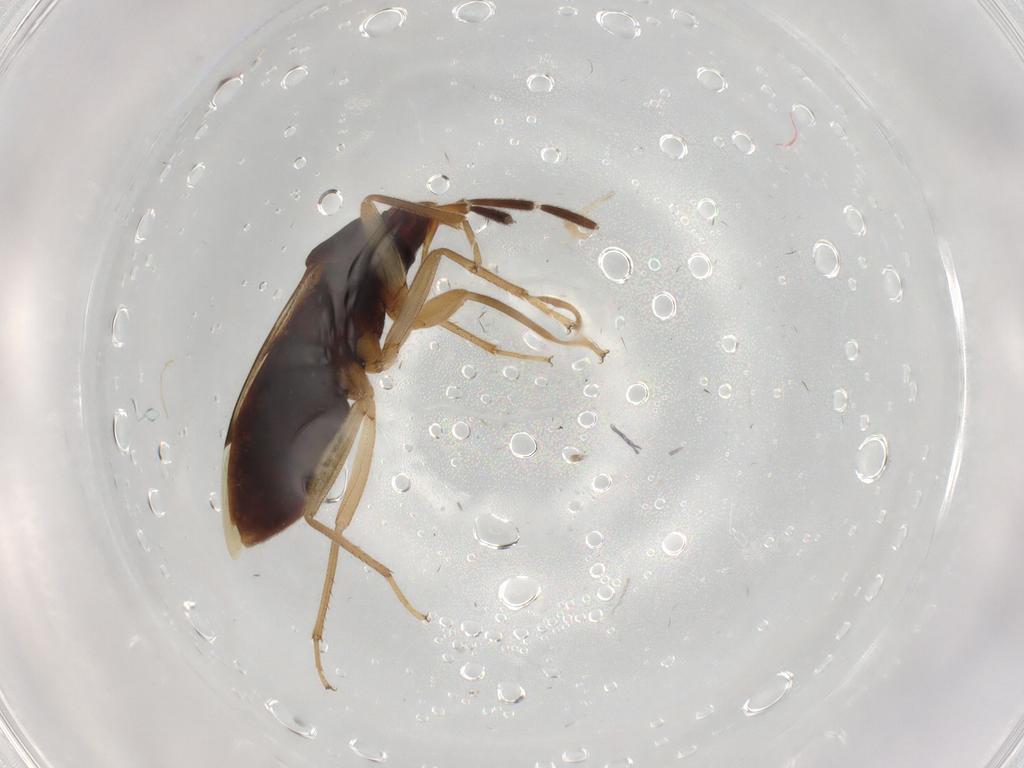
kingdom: Animalia
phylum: Arthropoda
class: Insecta
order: Hemiptera
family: Rhyparochromidae
